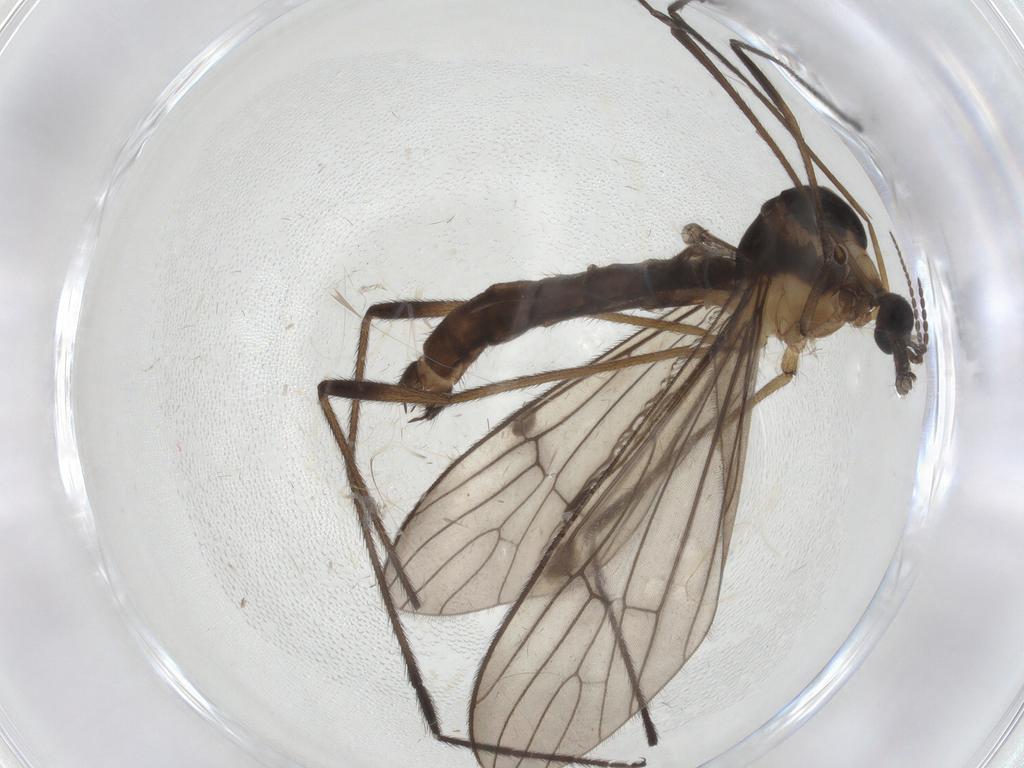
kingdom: Animalia
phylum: Arthropoda
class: Insecta
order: Diptera
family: Limoniidae
